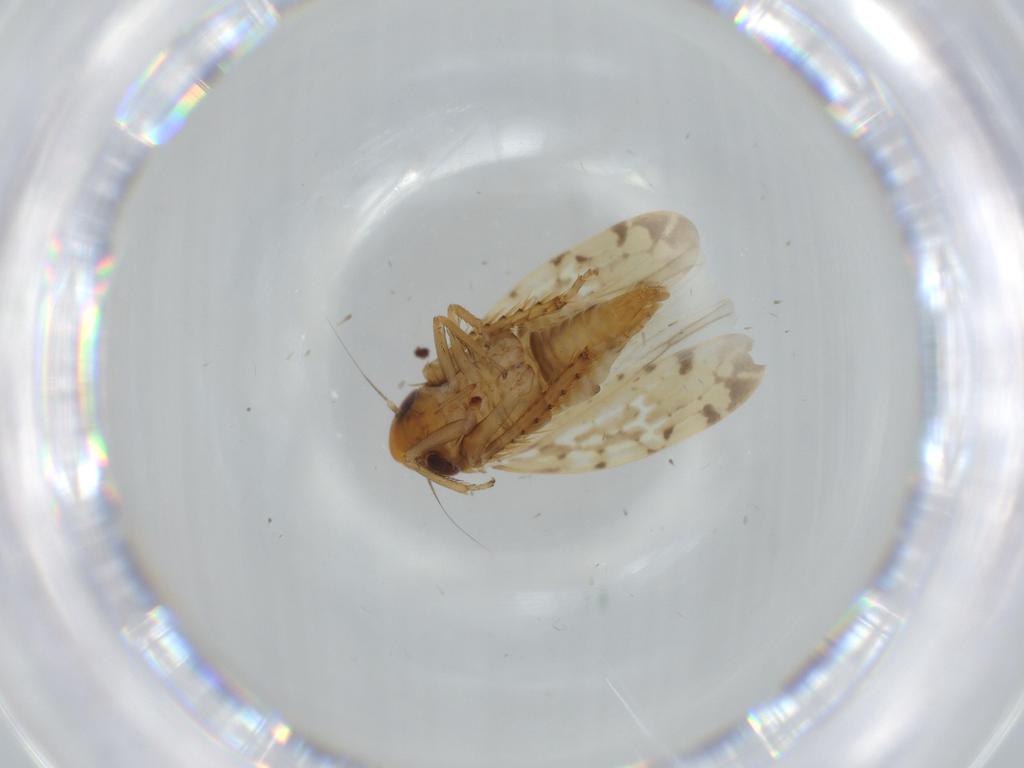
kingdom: Animalia
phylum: Arthropoda
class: Insecta
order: Hemiptera
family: Cicadellidae
